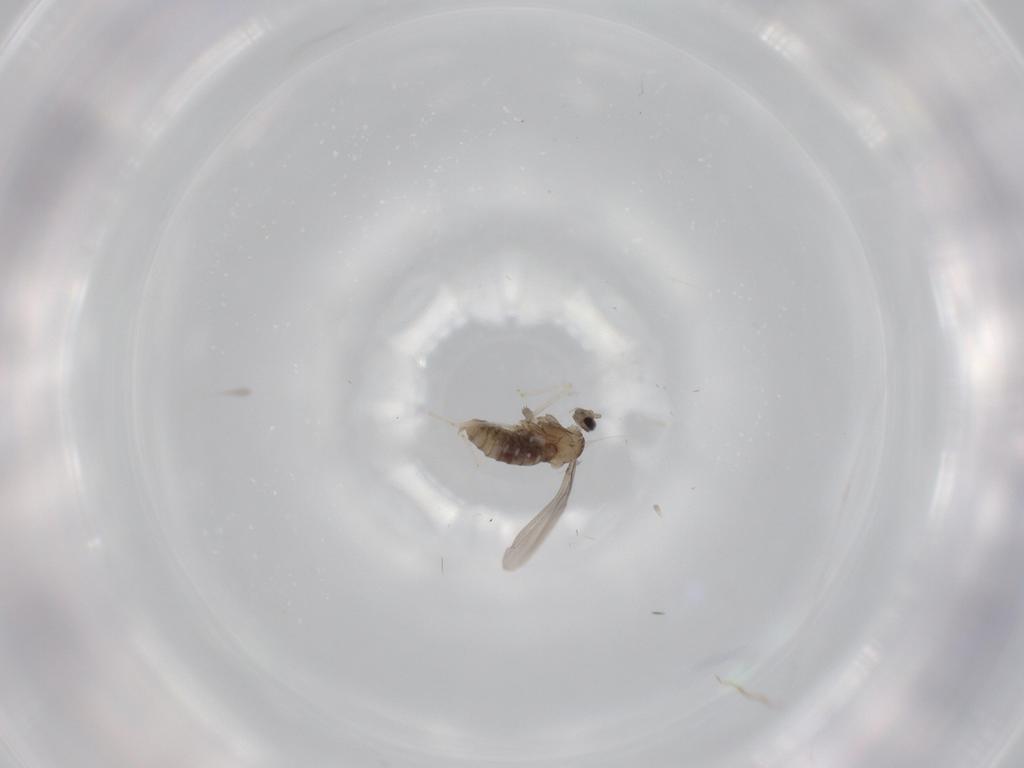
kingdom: Animalia
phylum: Arthropoda
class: Insecta
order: Diptera
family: Cecidomyiidae
